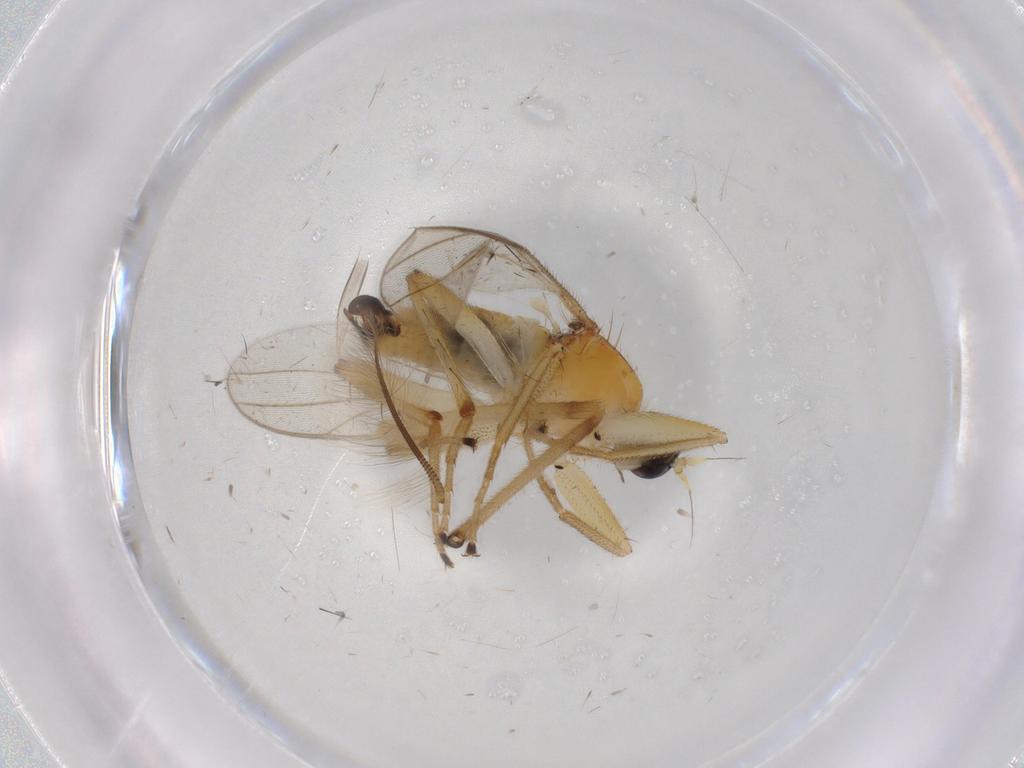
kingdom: Animalia
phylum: Arthropoda
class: Insecta
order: Diptera
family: Hybotidae
